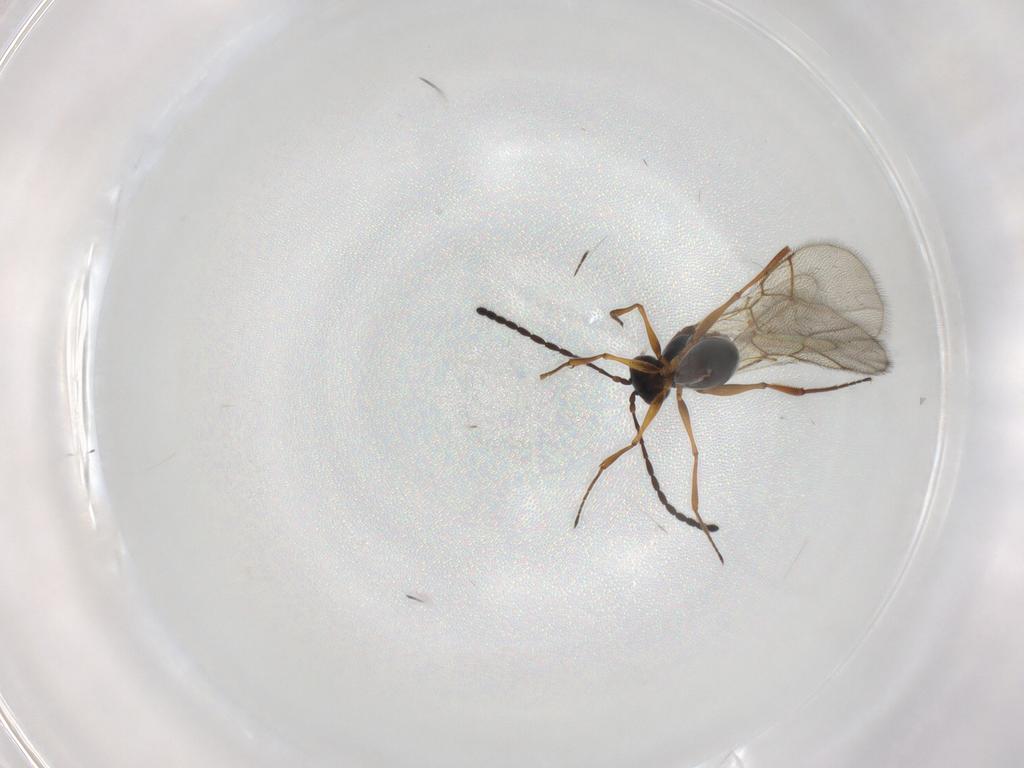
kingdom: Animalia
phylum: Arthropoda
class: Insecta
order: Hymenoptera
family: Figitidae
